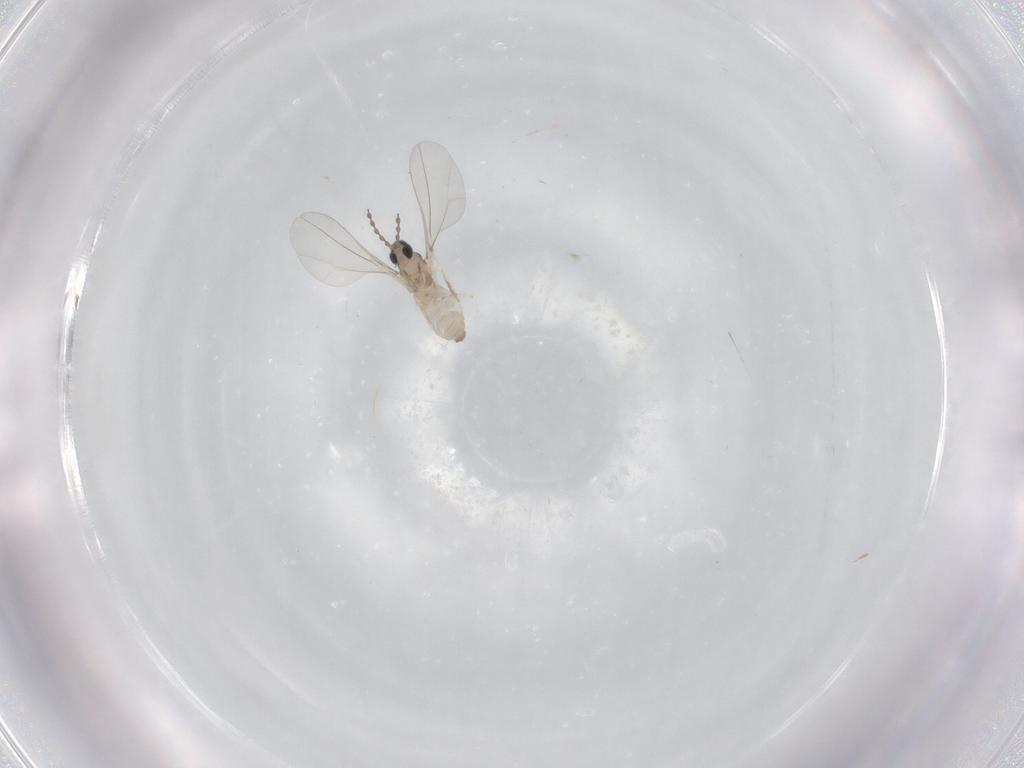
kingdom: Animalia
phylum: Arthropoda
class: Insecta
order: Diptera
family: Cecidomyiidae
